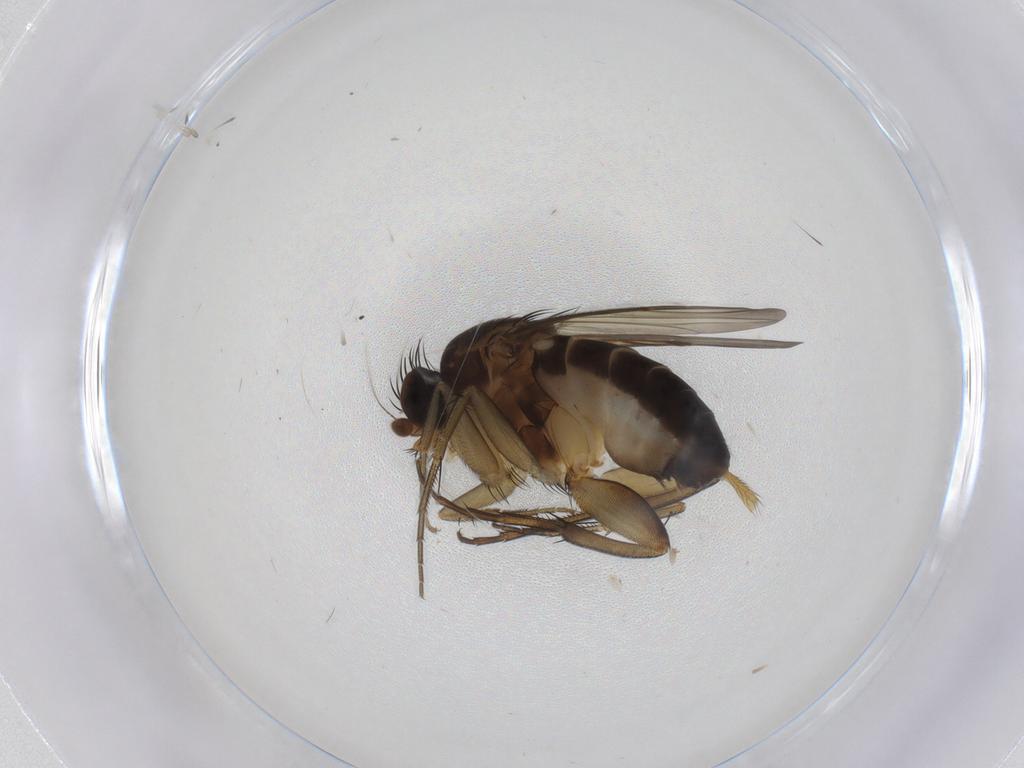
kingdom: Animalia
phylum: Arthropoda
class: Insecta
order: Diptera
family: Phoridae
